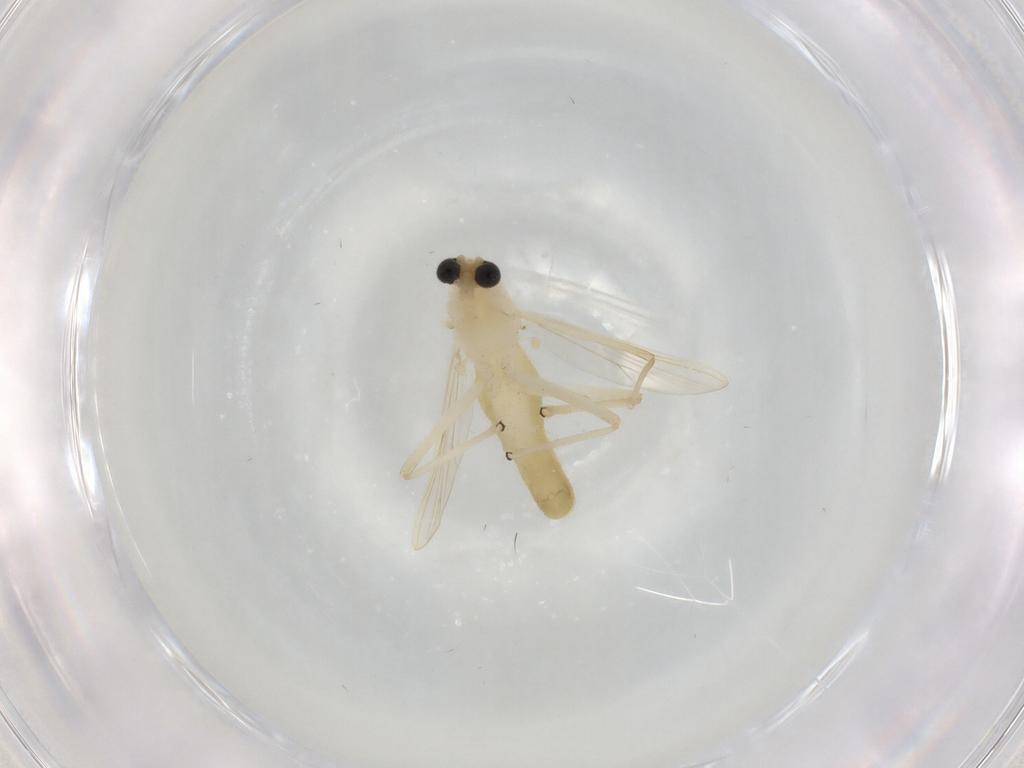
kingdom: Animalia
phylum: Arthropoda
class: Insecta
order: Diptera
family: Chironomidae
